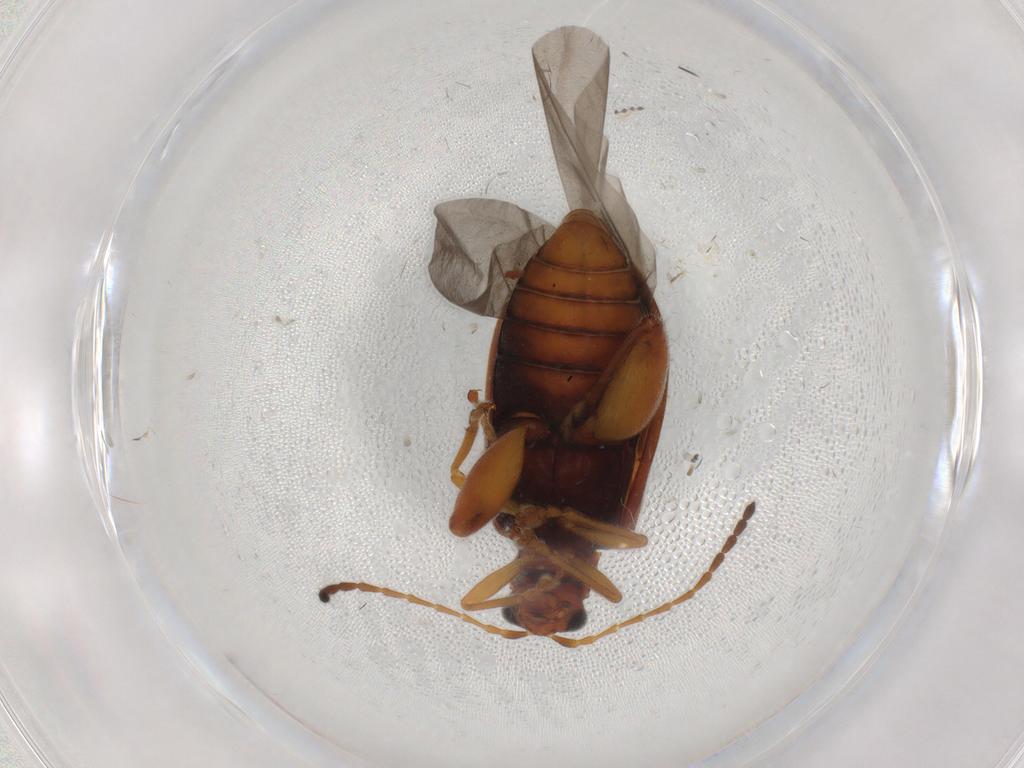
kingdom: Animalia
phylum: Arthropoda
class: Insecta
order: Coleoptera
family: Chrysomelidae
